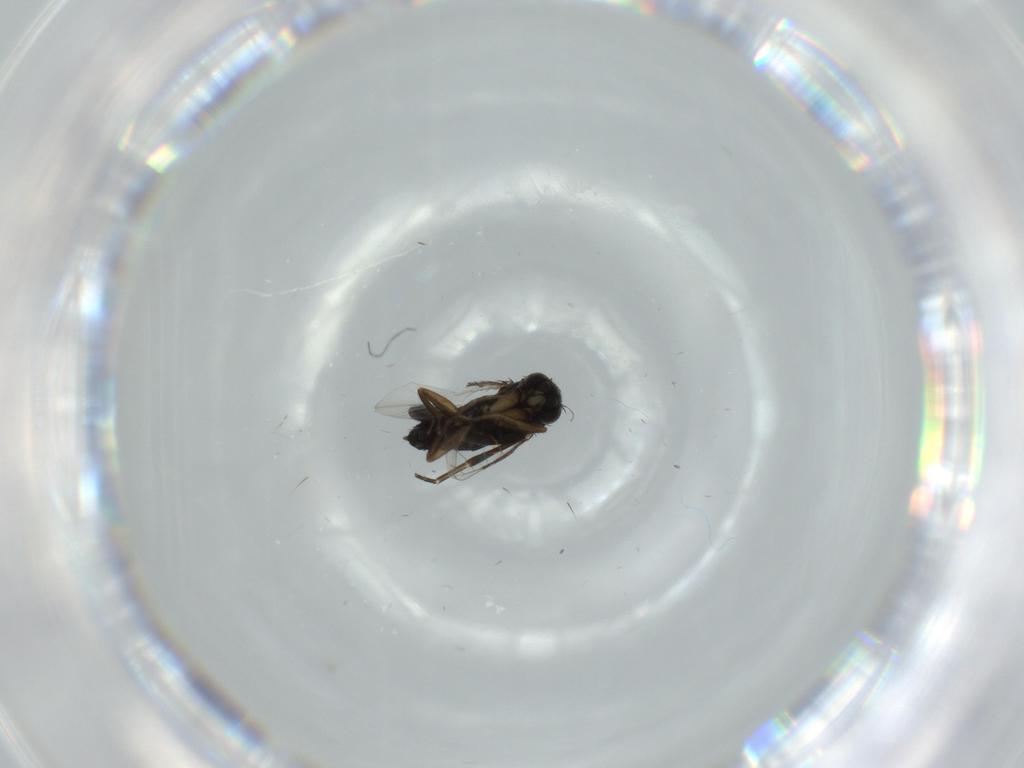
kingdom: Animalia
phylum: Arthropoda
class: Insecta
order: Diptera
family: Phoridae
